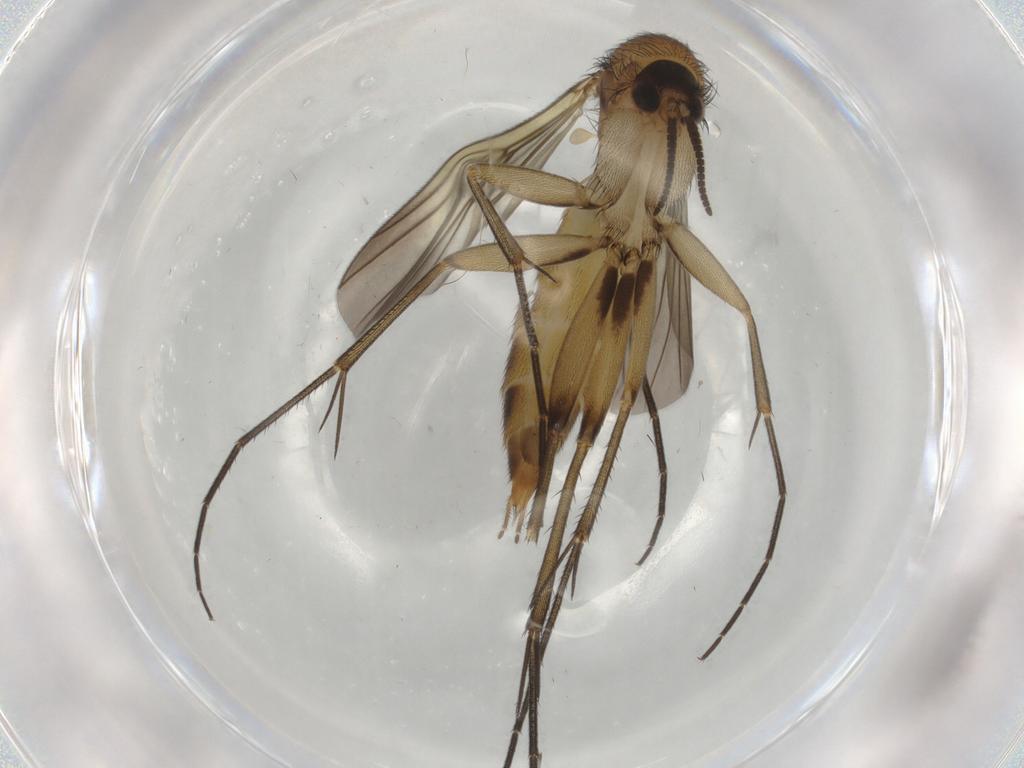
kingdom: Animalia
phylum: Arthropoda
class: Insecta
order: Diptera
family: Mycetophilidae
